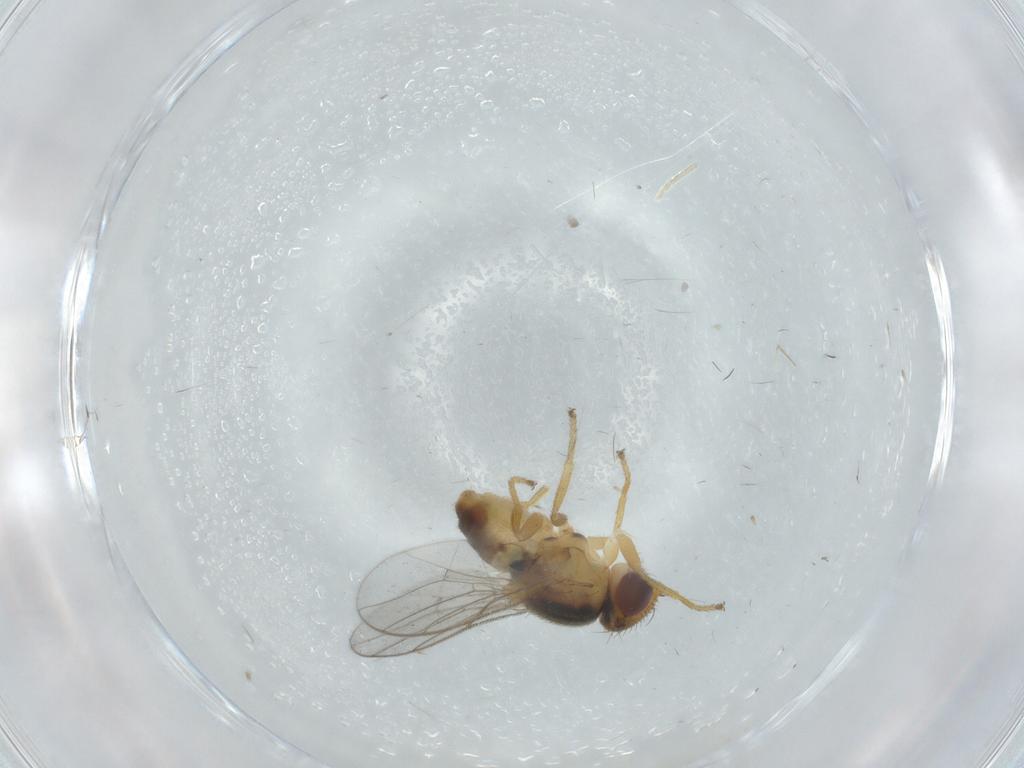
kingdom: Animalia
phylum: Arthropoda
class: Insecta
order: Diptera
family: Chloropidae
